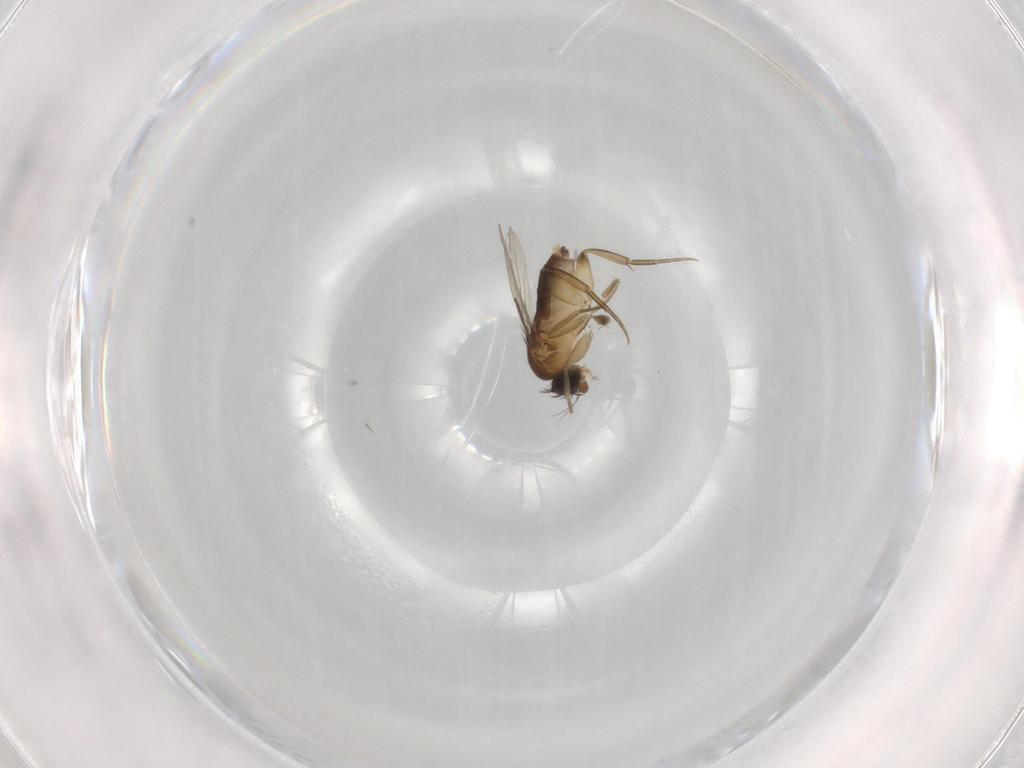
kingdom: Animalia
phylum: Arthropoda
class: Insecta
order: Diptera
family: Phoridae
